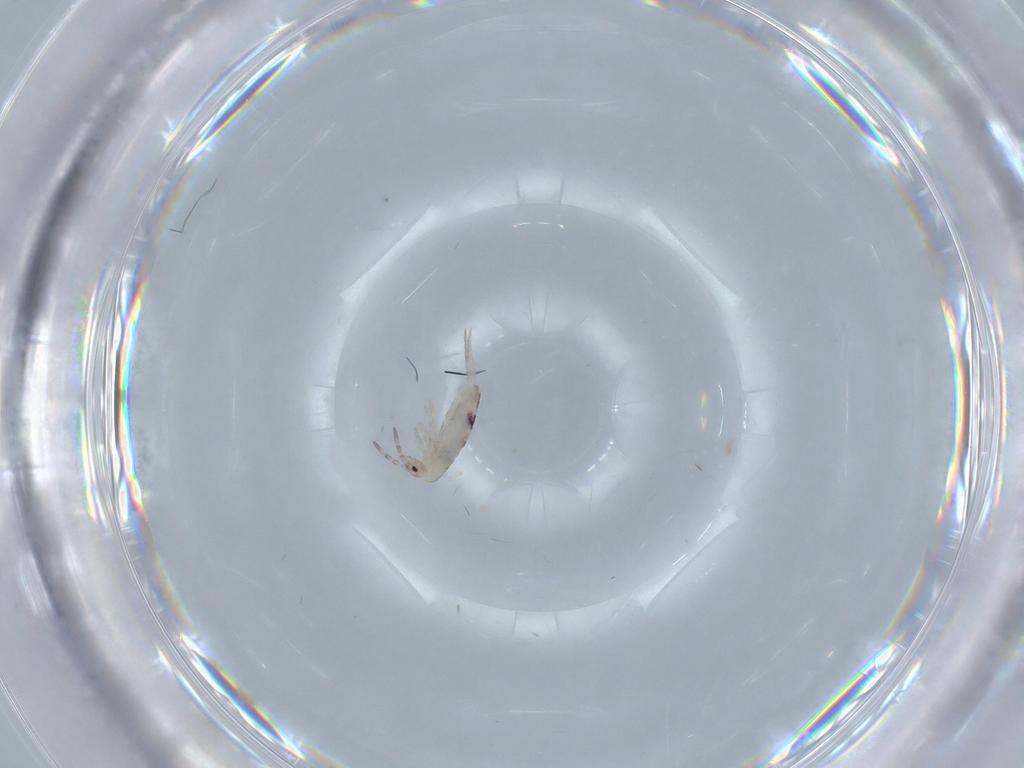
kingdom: Animalia
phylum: Arthropoda
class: Collembola
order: Entomobryomorpha
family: Entomobryidae
